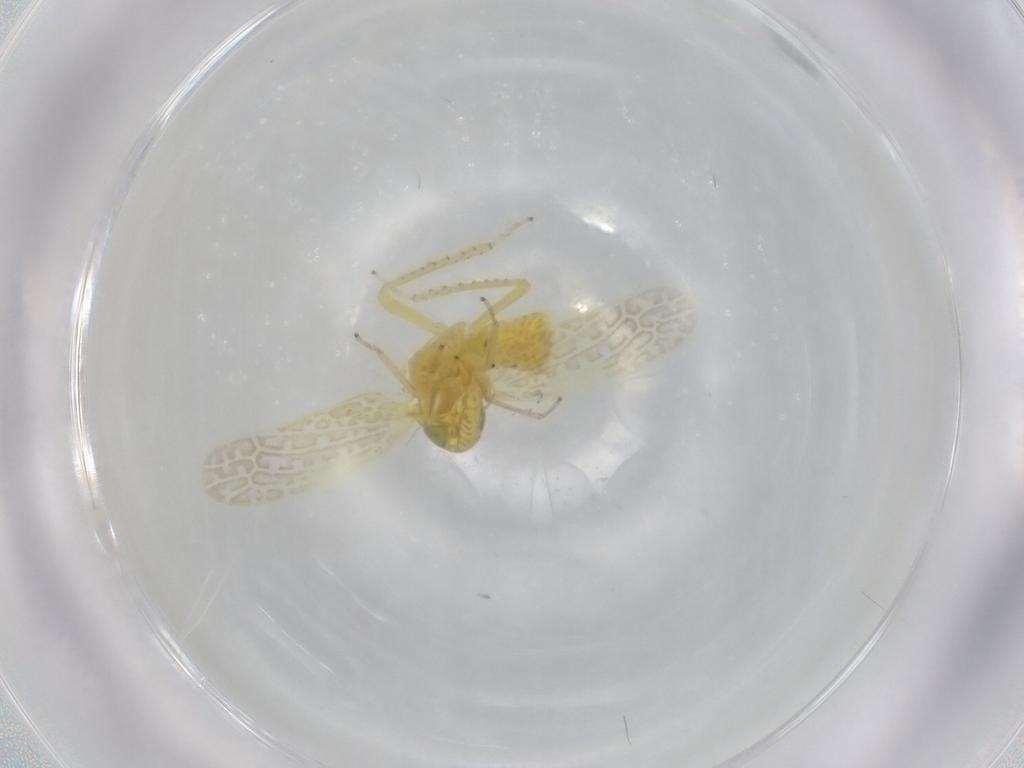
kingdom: Animalia
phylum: Arthropoda
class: Insecta
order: Hemiptera
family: Cicadellidae
